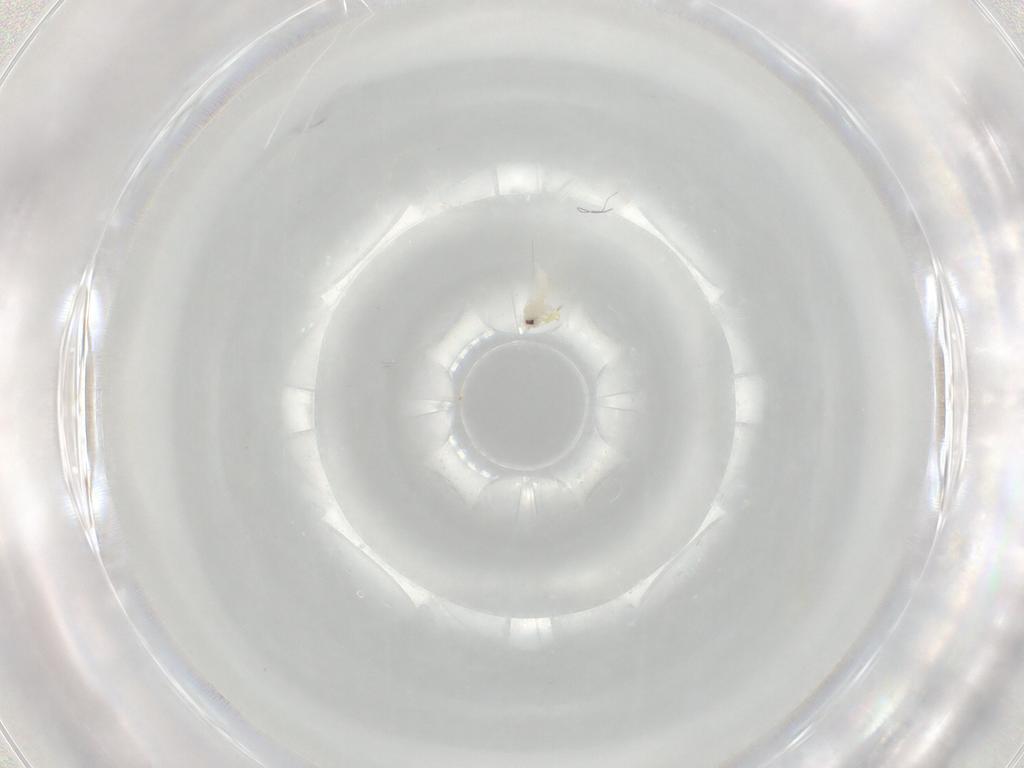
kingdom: Animalia
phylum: Arthropoda
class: Insecta
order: Hemiptera
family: Aleyrodidae
